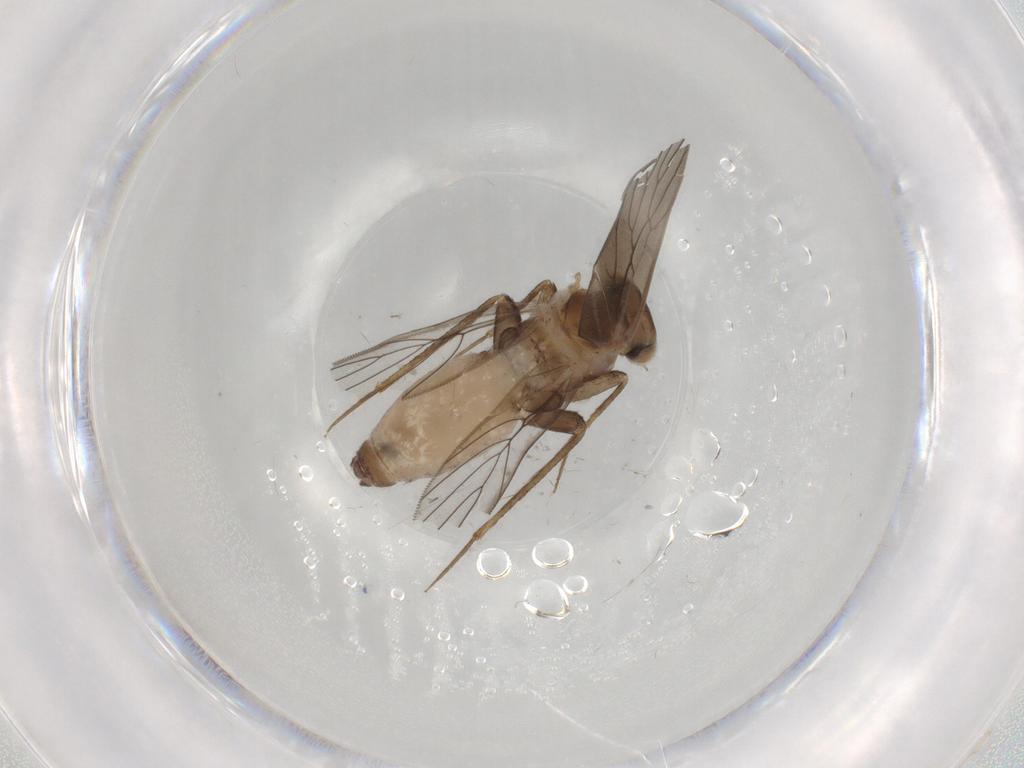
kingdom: Animalia
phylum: Arthropoda
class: Insecta
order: Psocodea
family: Lepidopsocidae
